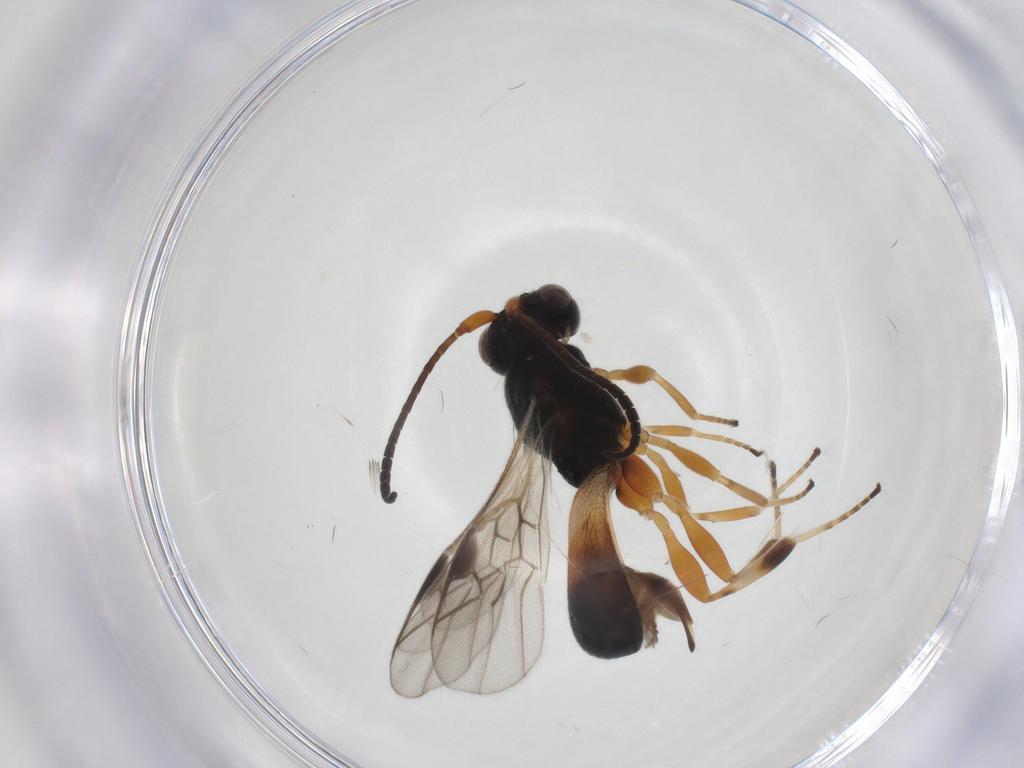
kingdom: Animalia
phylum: Arthropoda
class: Insecta
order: Hymenoptera
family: Braconidae
